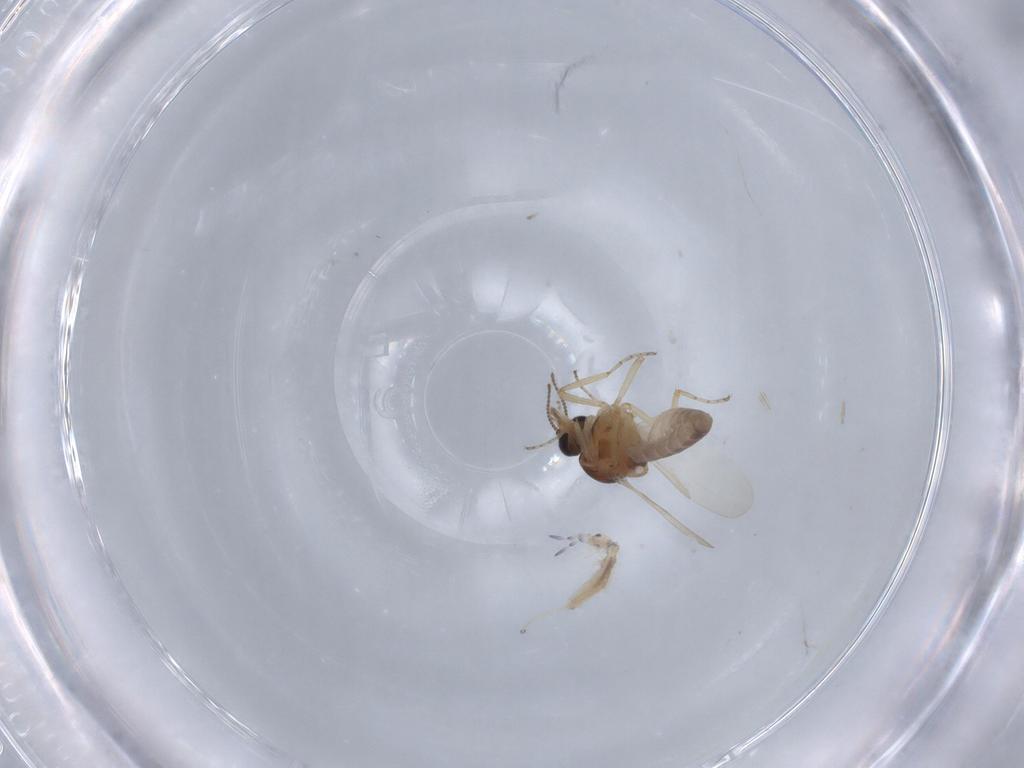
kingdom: Animalia
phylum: Arthropoda
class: Insecta
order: Diptera
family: Ceratopogonidae
